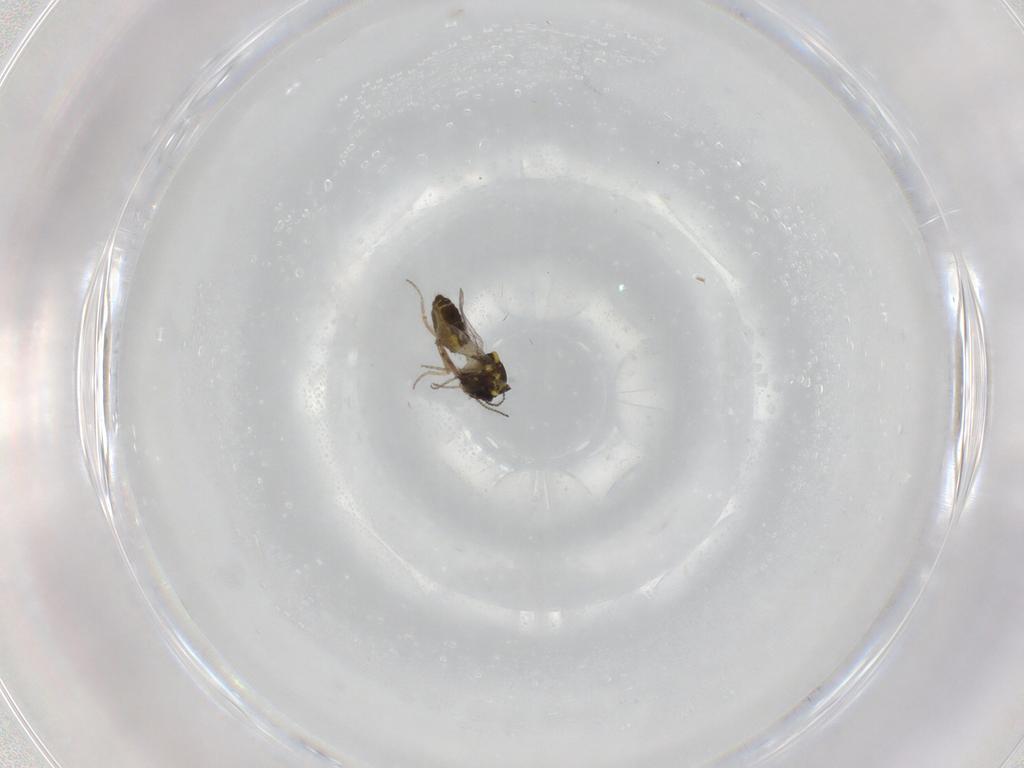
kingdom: Animalia
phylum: Arthropoda
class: Insecta
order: Diptera
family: Ceratopogonidae
